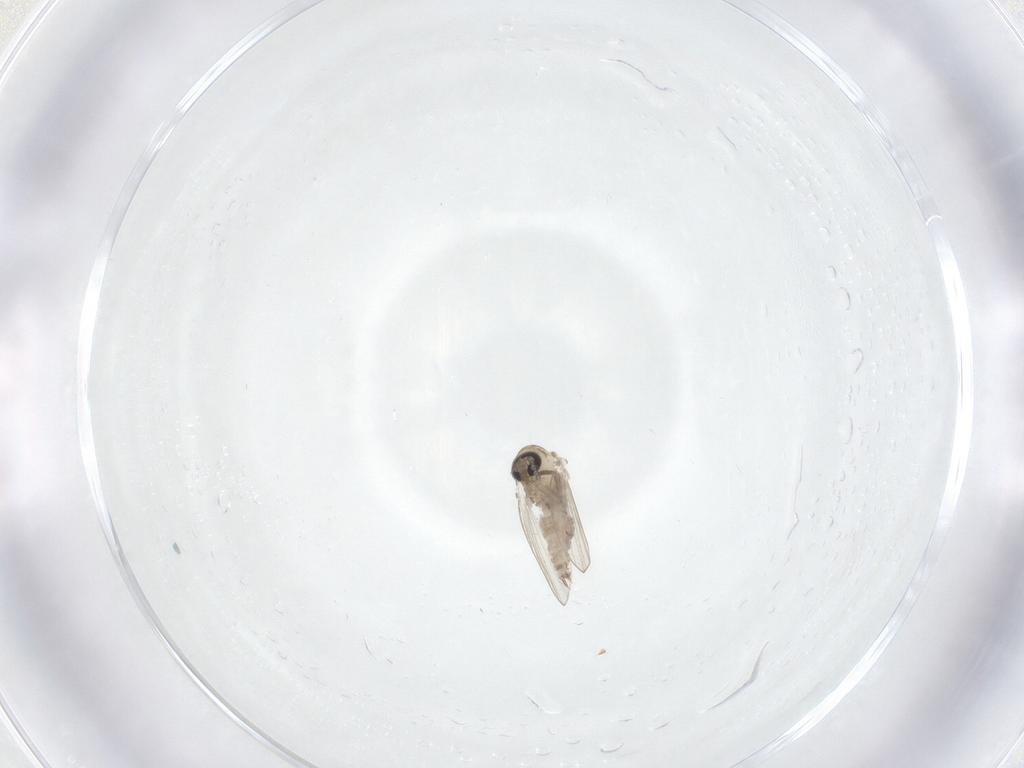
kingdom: Animalia
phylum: Arthropoda
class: Insecta
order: Diptera
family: Psychodidae
